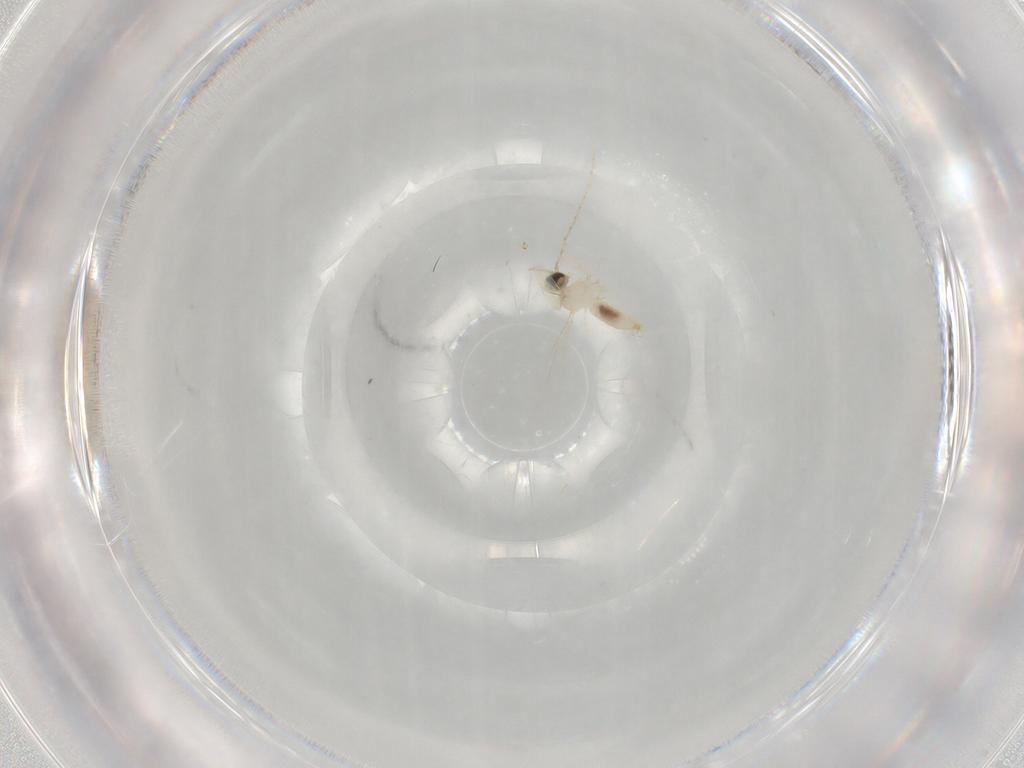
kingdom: Animalia
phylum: Arthropoda
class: Insecta
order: Diptera
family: Cecidomyiidae
